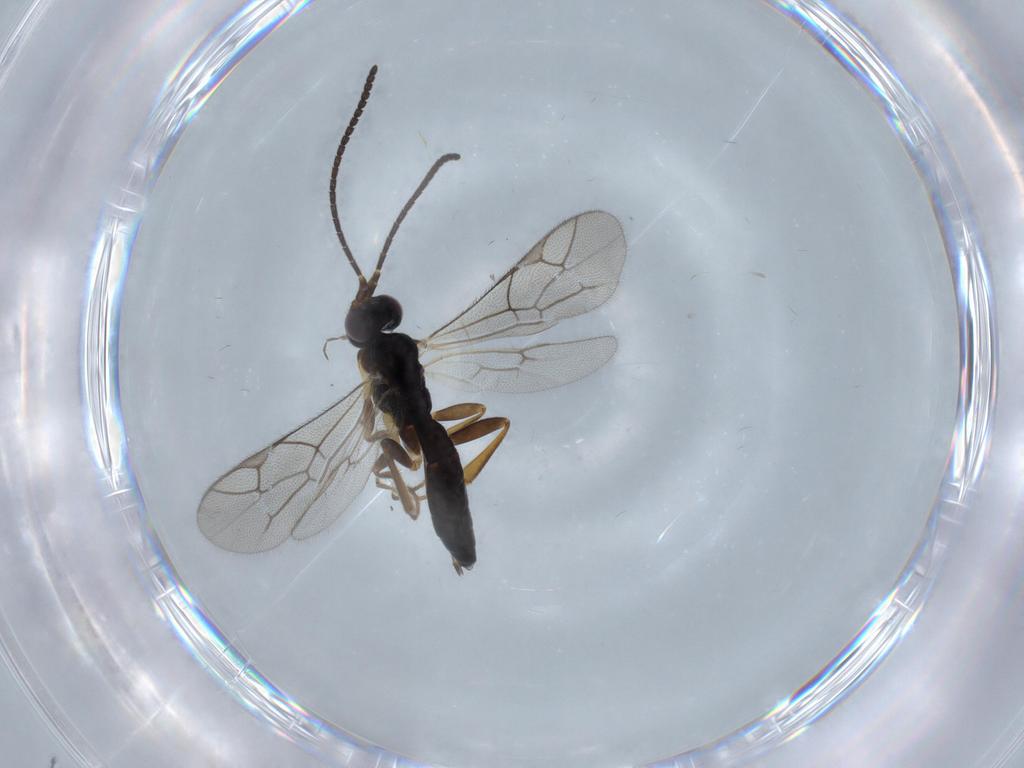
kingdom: Animalia
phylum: Arthropoda
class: Insecta
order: Hymenoptera
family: Ichneumonidae
